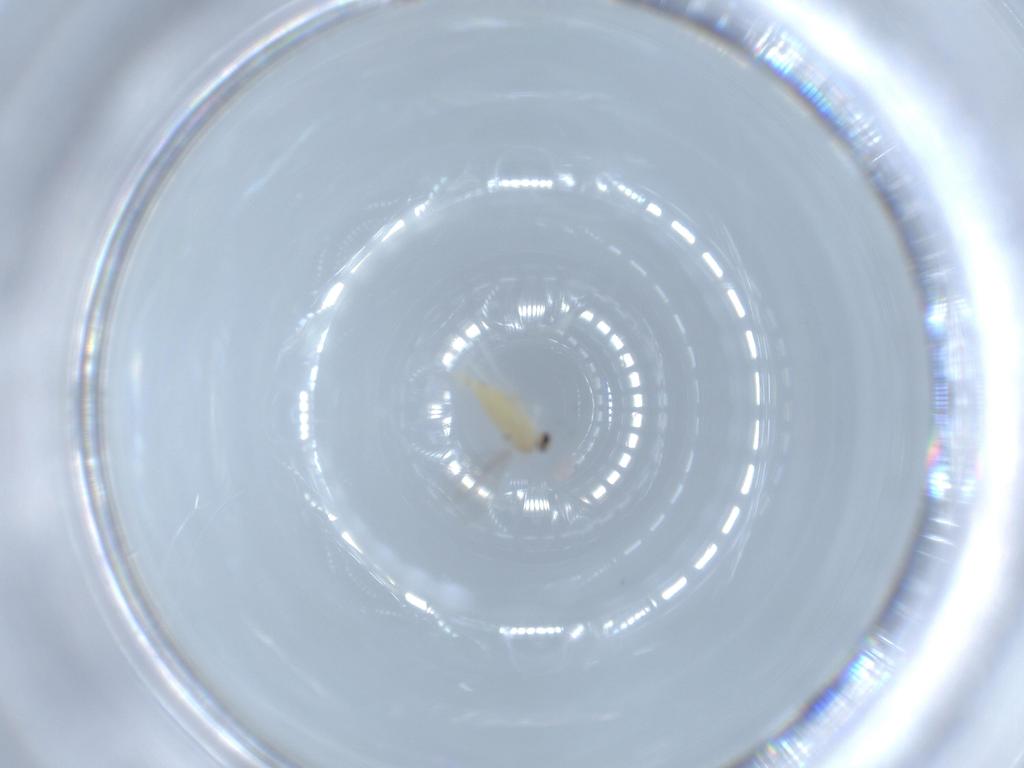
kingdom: Animalia
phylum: Arthropoda
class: Insecta
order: Diptera
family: Cecidomyiidae
